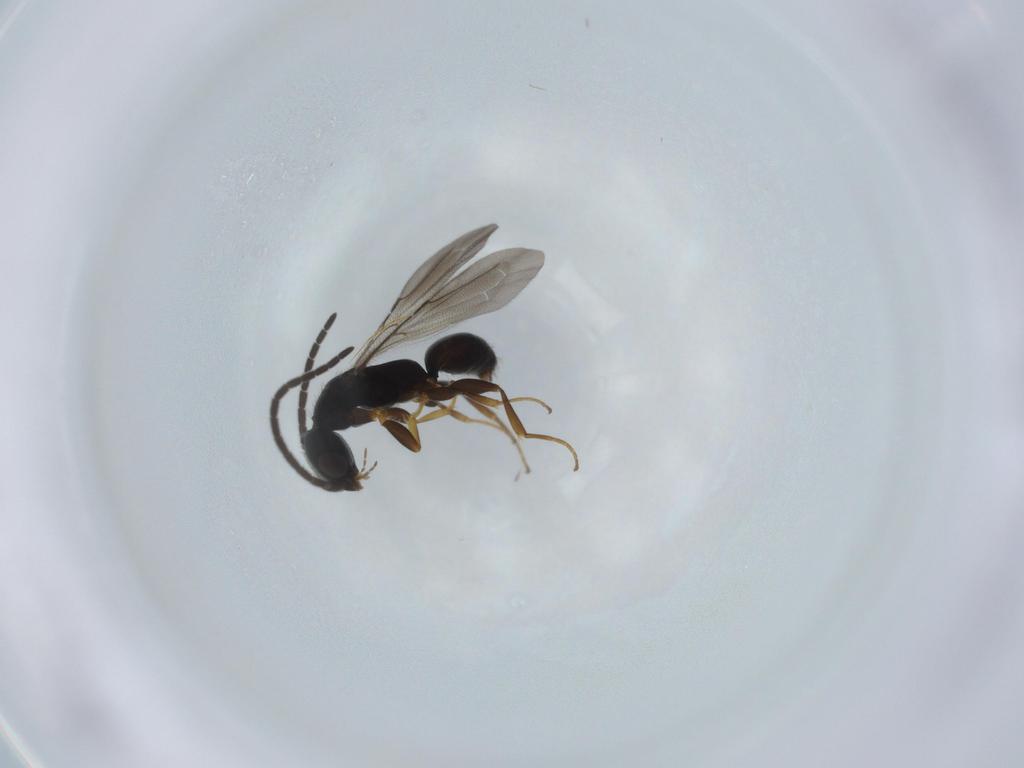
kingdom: Animalia
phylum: Arthropoda
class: Insecta
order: Hymenoptera
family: Bethylidae
